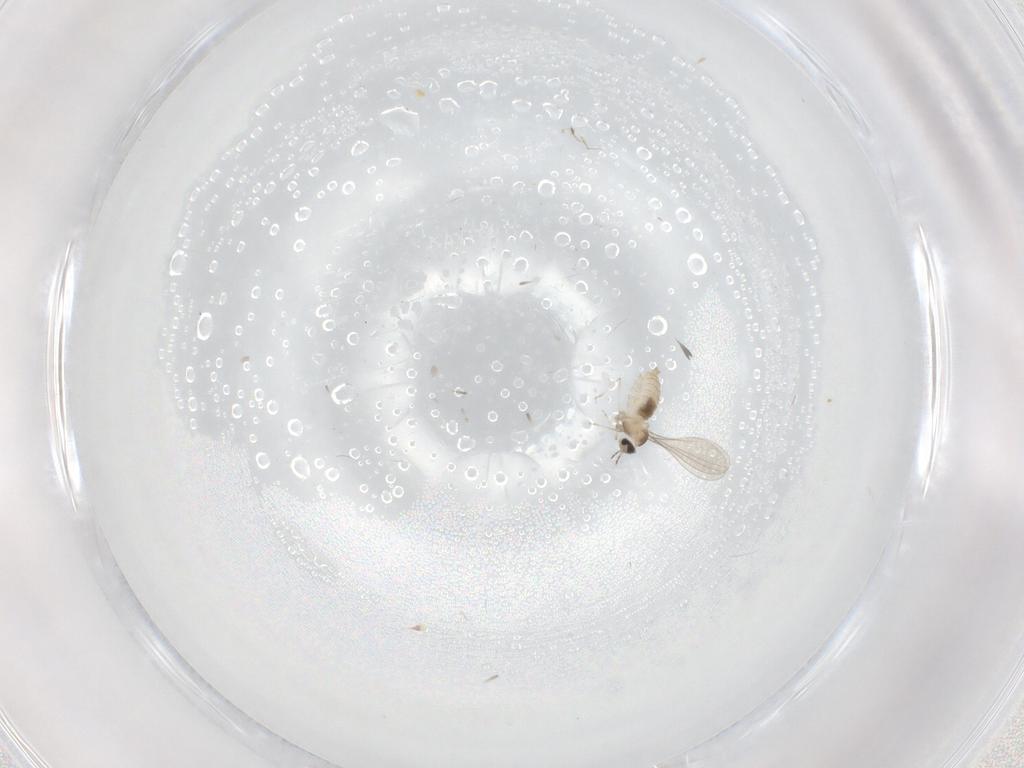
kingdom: Animalia
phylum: Arthropoda
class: Insecta
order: Diptera
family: Cecidomyiidae
